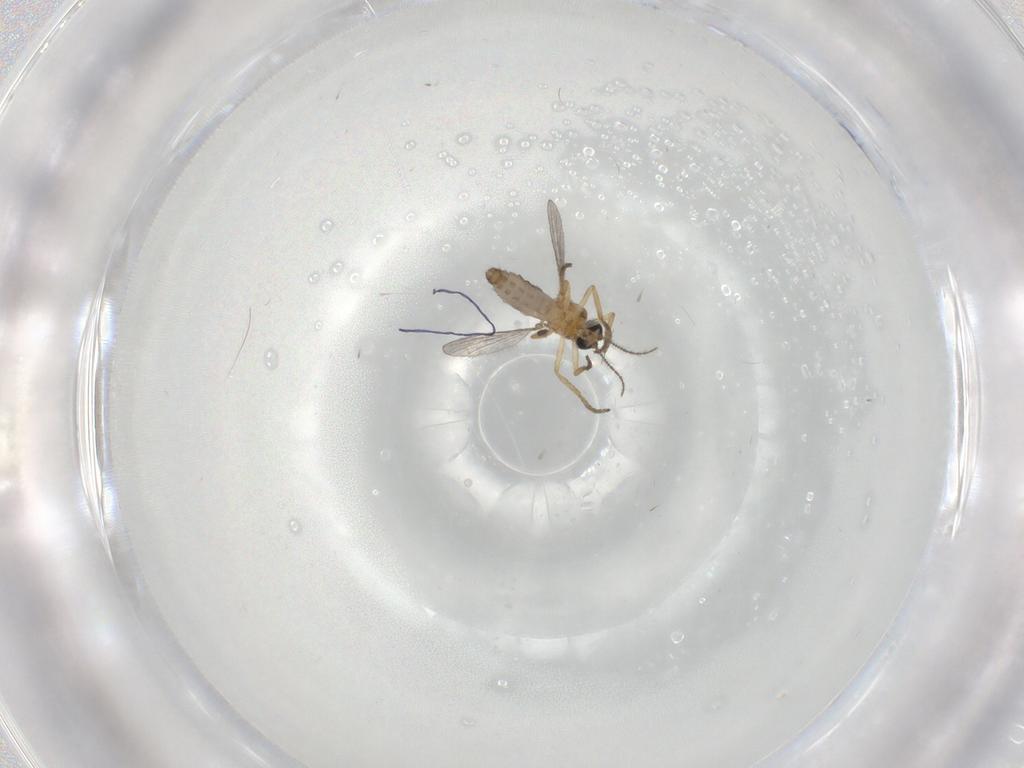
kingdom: Animalia
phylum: Arthropoda
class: Insecta
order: Diptera
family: Ceratopogonidae
